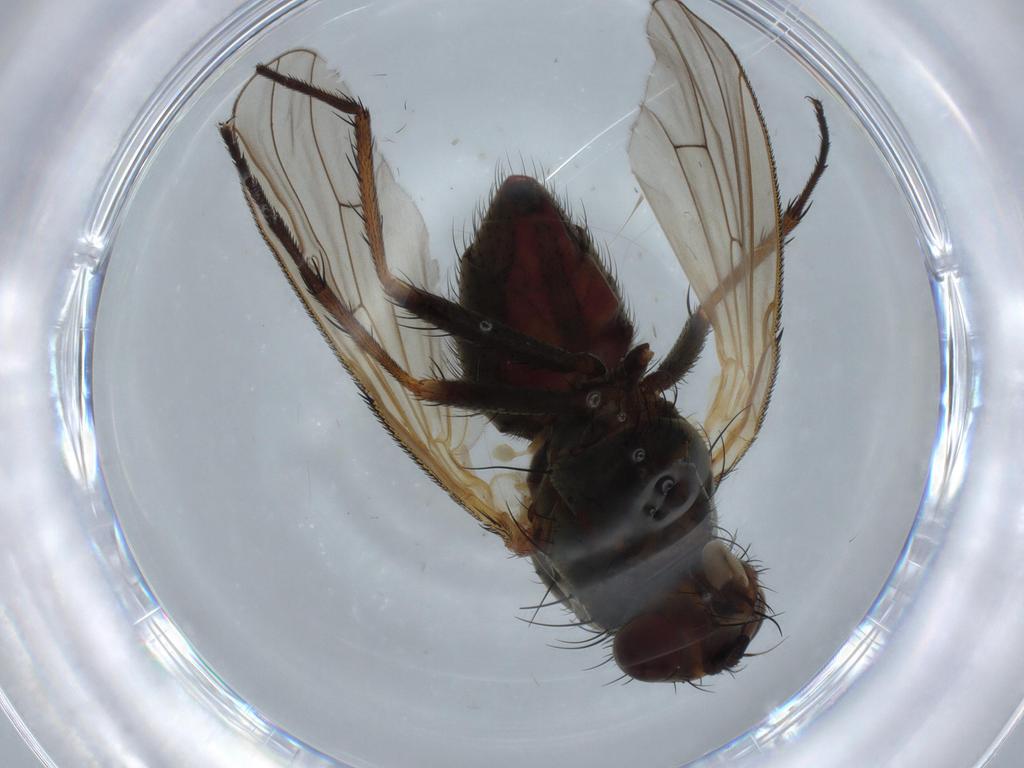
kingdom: Animalia
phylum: Arthropoda
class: Insecta
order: Diptera
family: Anthomyiidae
